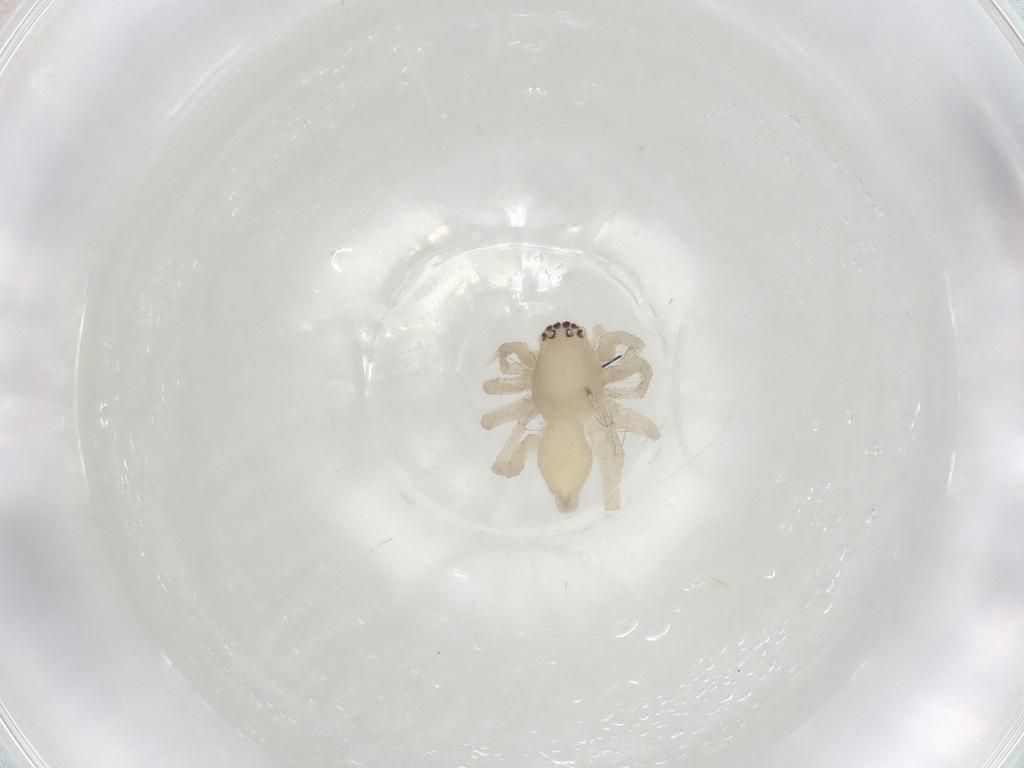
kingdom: Animalia
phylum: Arthropoda
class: Arachnida
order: Araneae
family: Clubionidae
